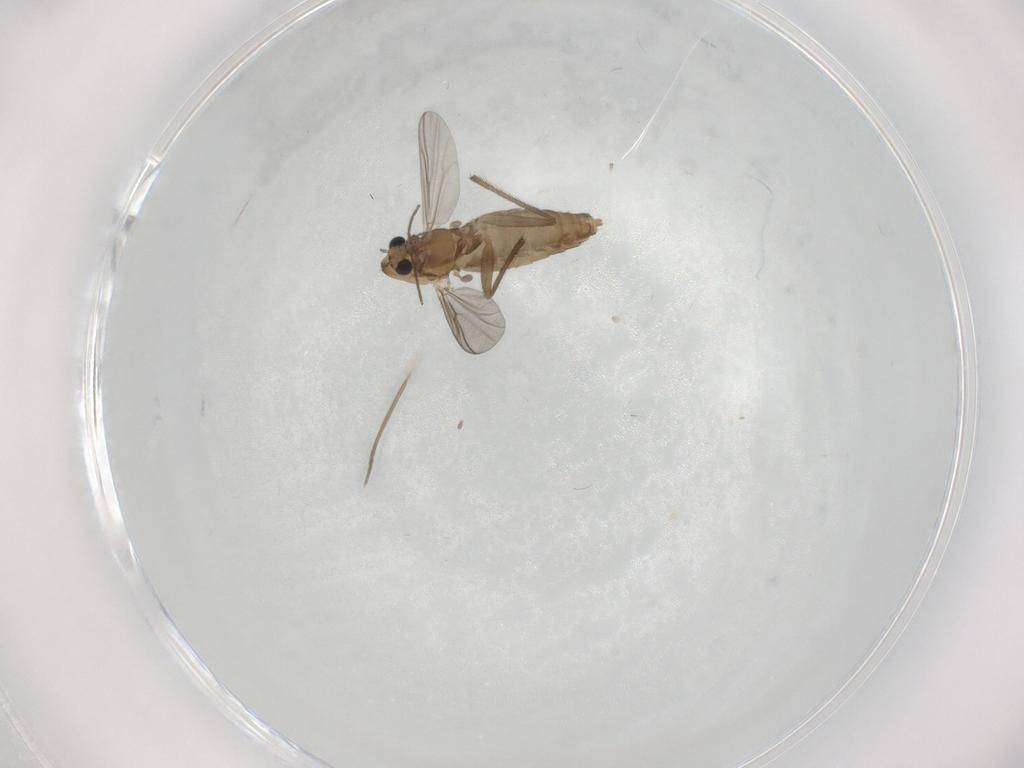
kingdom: Animalia
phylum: Arthropoda
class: Insecta
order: Diptera
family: Chironomidae
